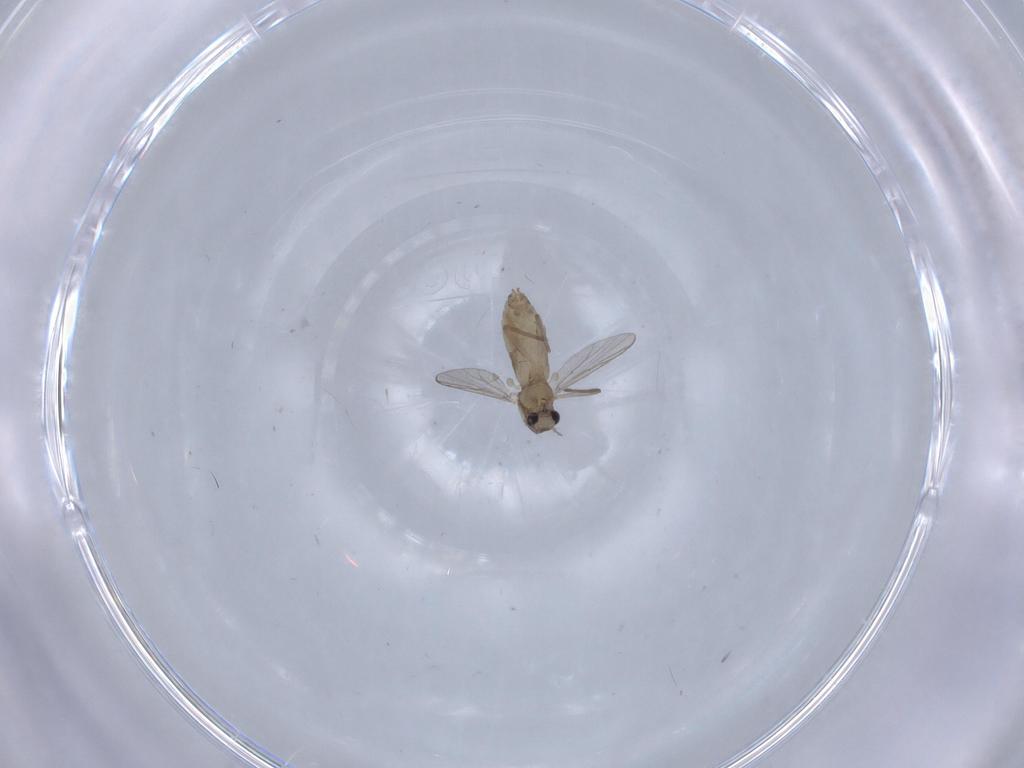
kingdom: Animalia
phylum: Arthropoda
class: Insecta
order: Diptera
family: Chironomidae
